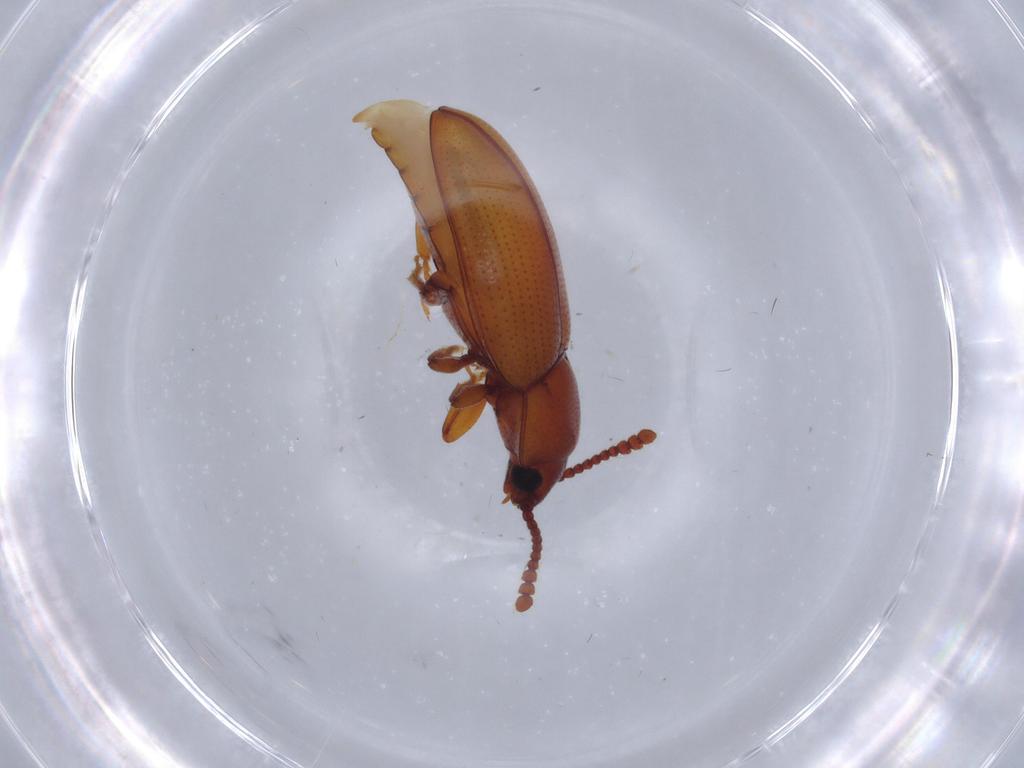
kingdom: Animalia
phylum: Arthropoda
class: Insecta
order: Coleoptera
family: Erotylidae
